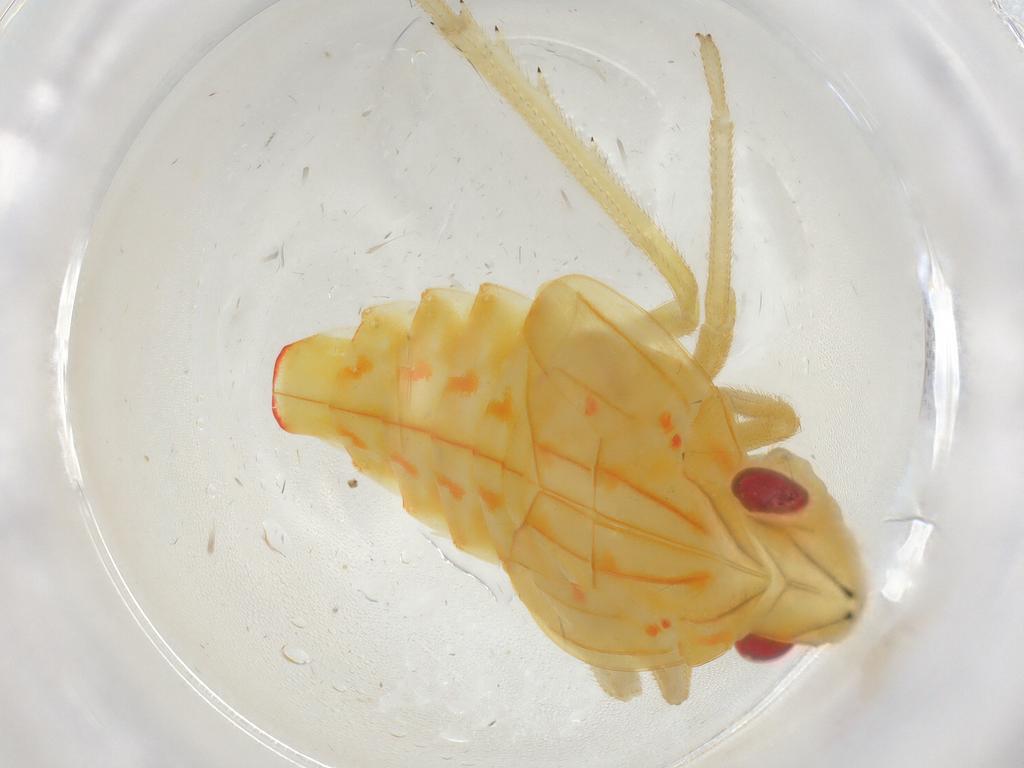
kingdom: Animalia
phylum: Arthropoda
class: Insecta
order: Hemiptera
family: Tropiduchidae
